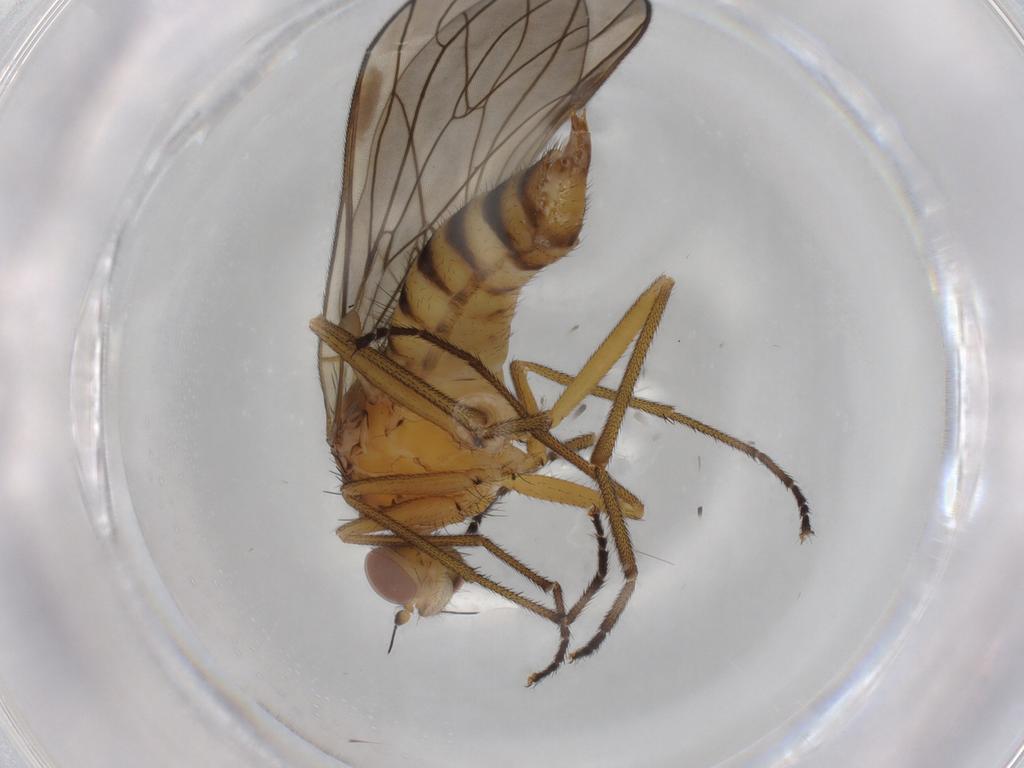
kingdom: Animalia
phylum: Arthropoda
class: Insecta
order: Diptera
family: Brachystomatidae
